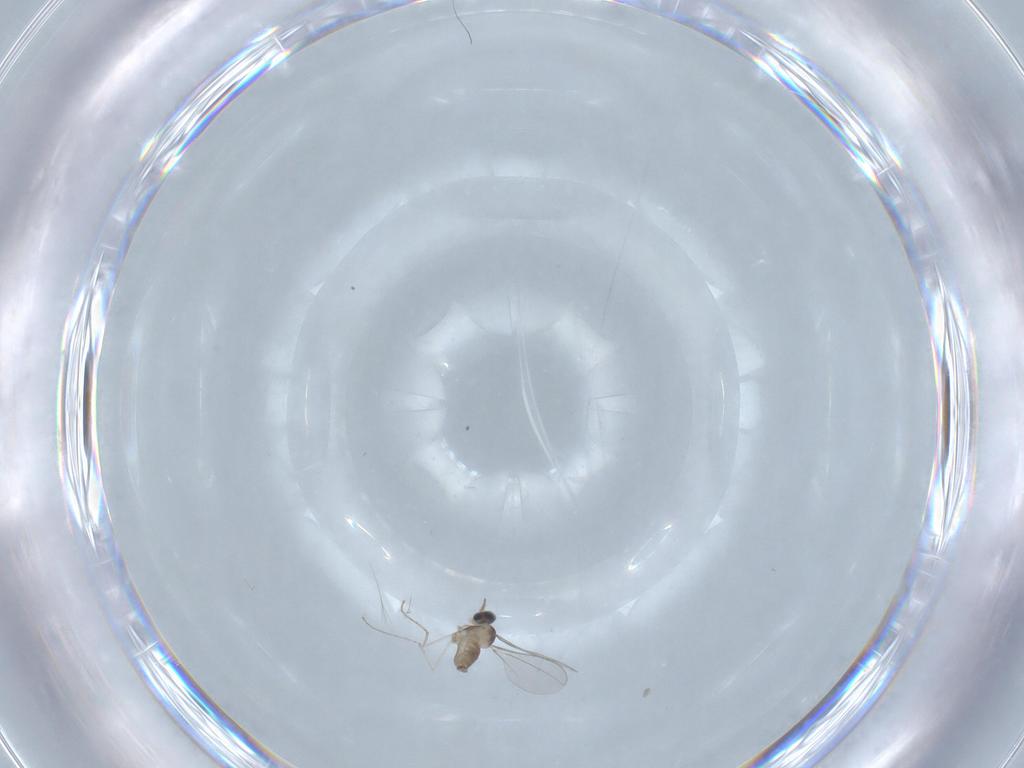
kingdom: Animalia
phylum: Arthropoda
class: Insecta
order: Diptera
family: Cecidomyiidae
